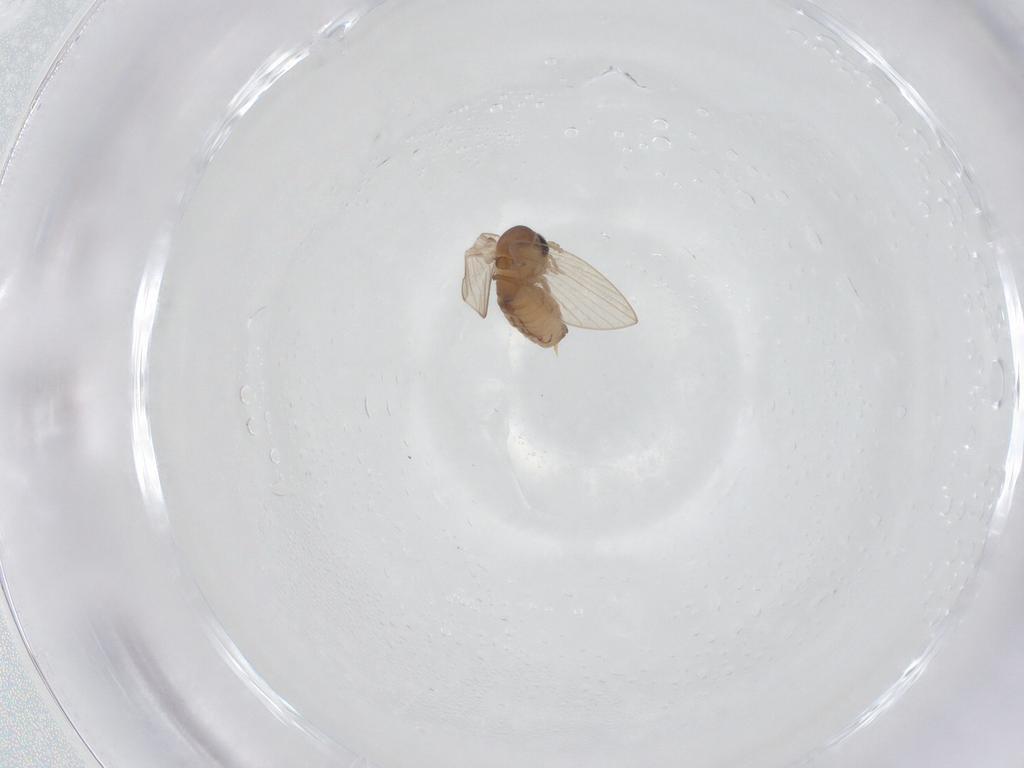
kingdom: Animalia
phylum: Arthropoda
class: Insecta
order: Diptera
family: Psychodidae
